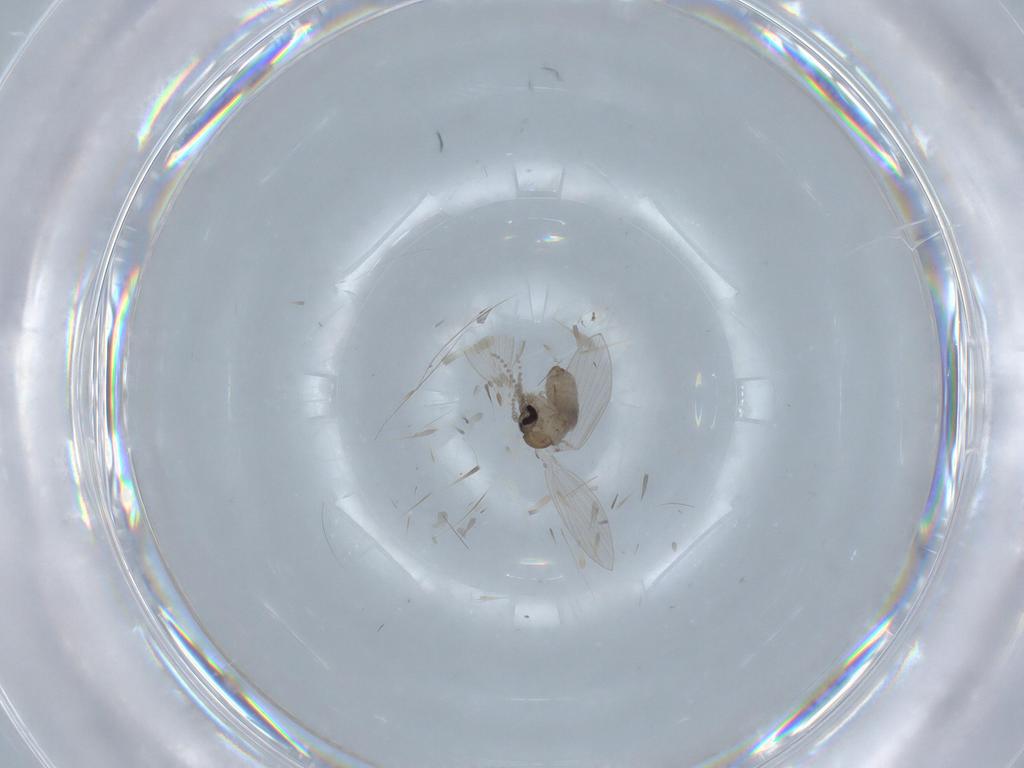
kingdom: Animalia
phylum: Arthropoda
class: Insecta
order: Diptera
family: Psychodidae
